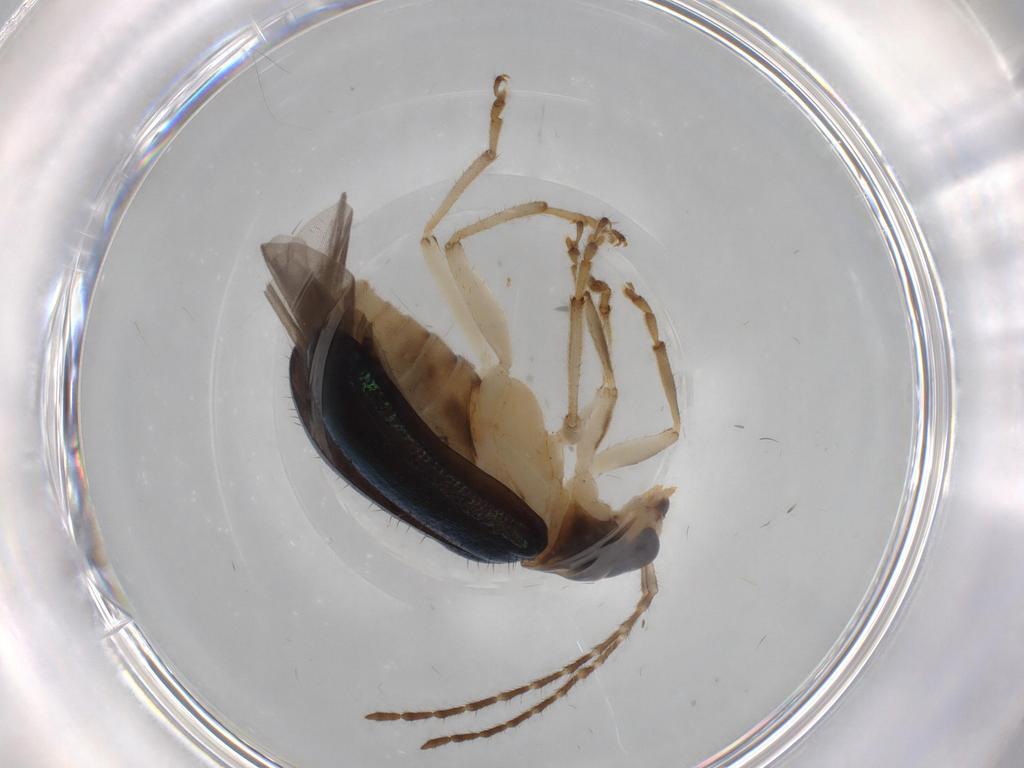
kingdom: Animalia
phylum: Arthropoda
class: Insecta
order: Coleoptera
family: Chrysomelidae
